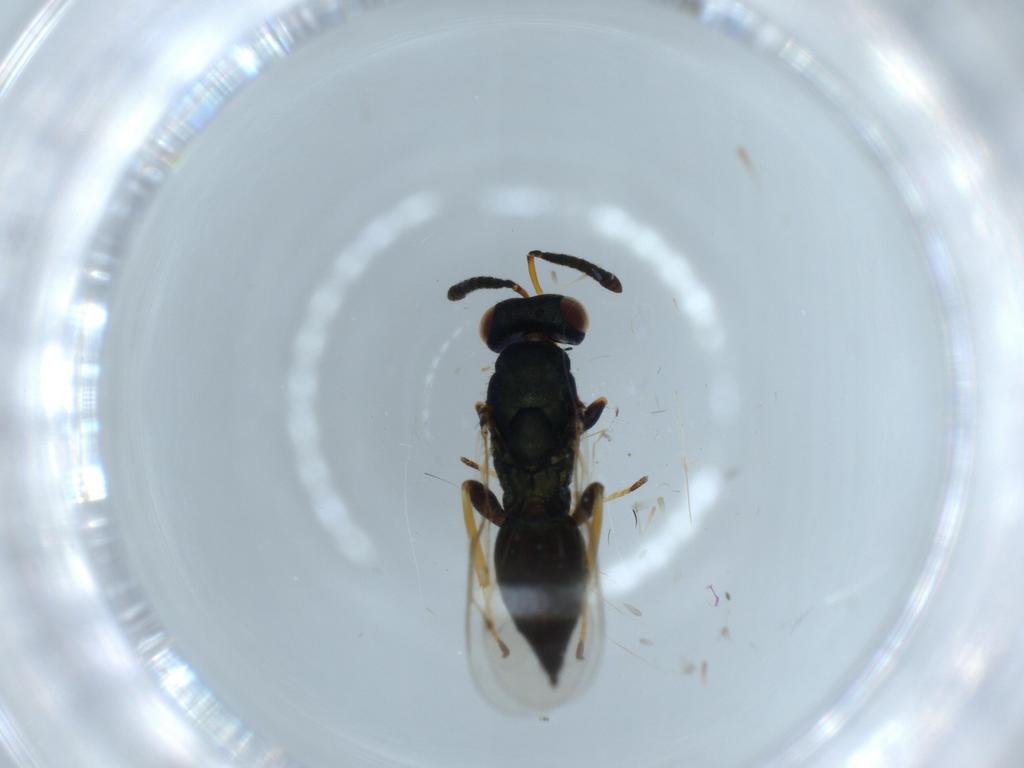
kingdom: Animalia
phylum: Arthropoda
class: Insecta
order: Hymenoptera
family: Pteromalidae
